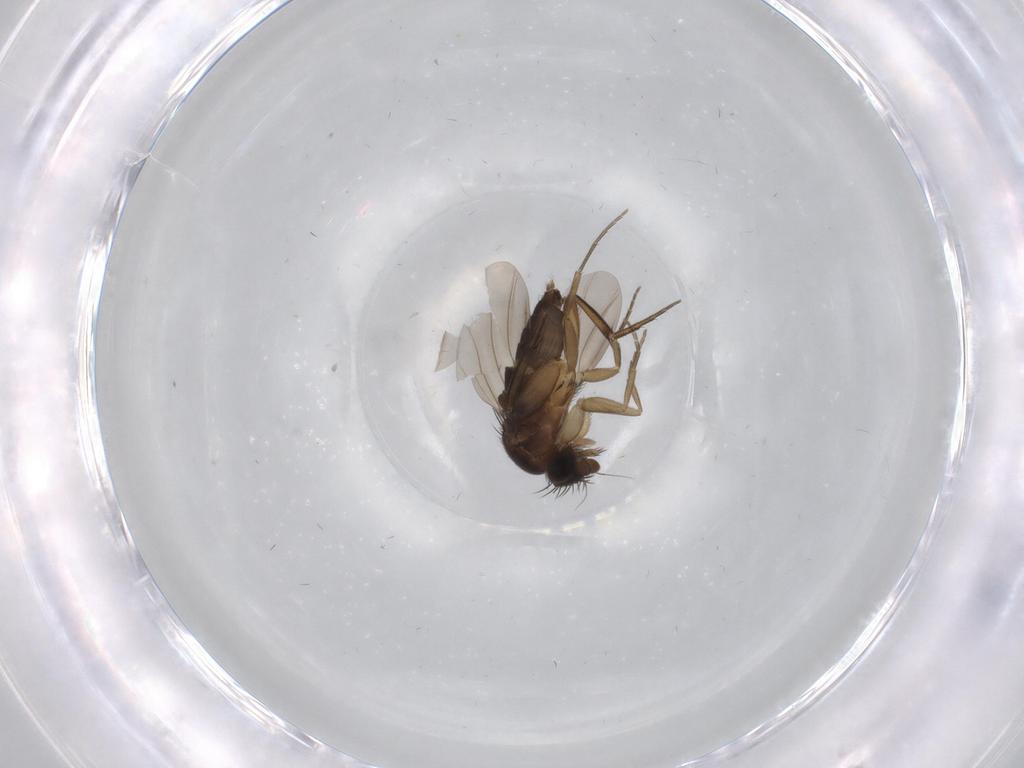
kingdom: Animalia
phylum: Arthropoda
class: Insecta
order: Diptera
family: Phoridae
